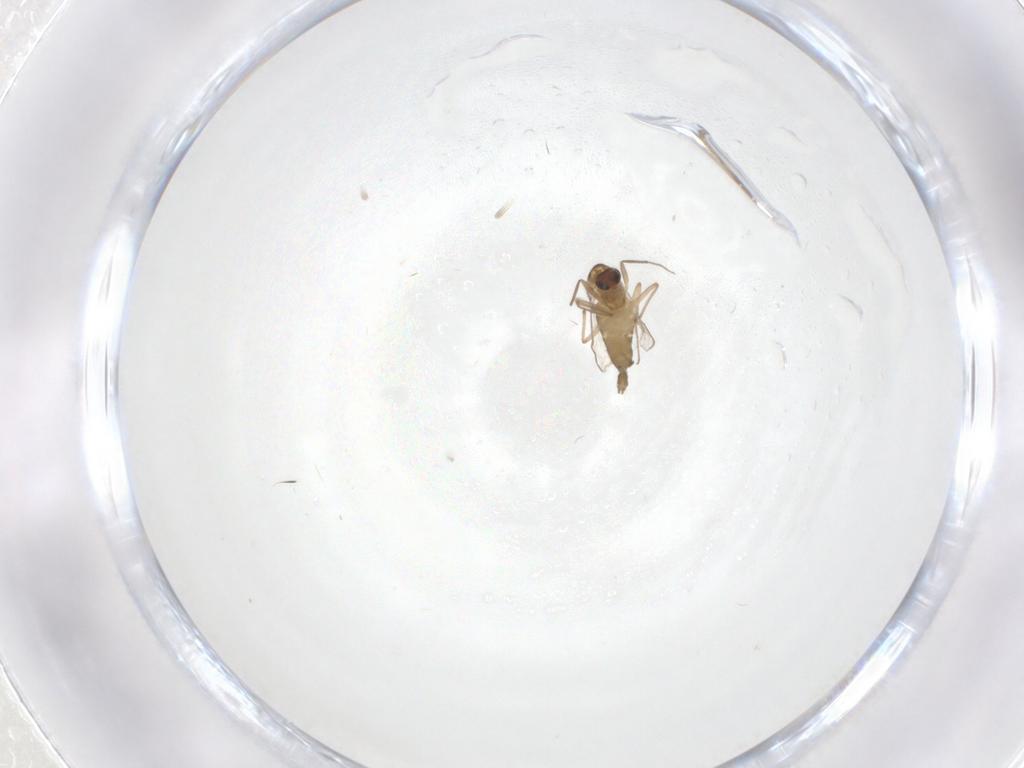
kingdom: Animalia
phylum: Arthropoda
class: Insecta
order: Diptera
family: Chironomidae
